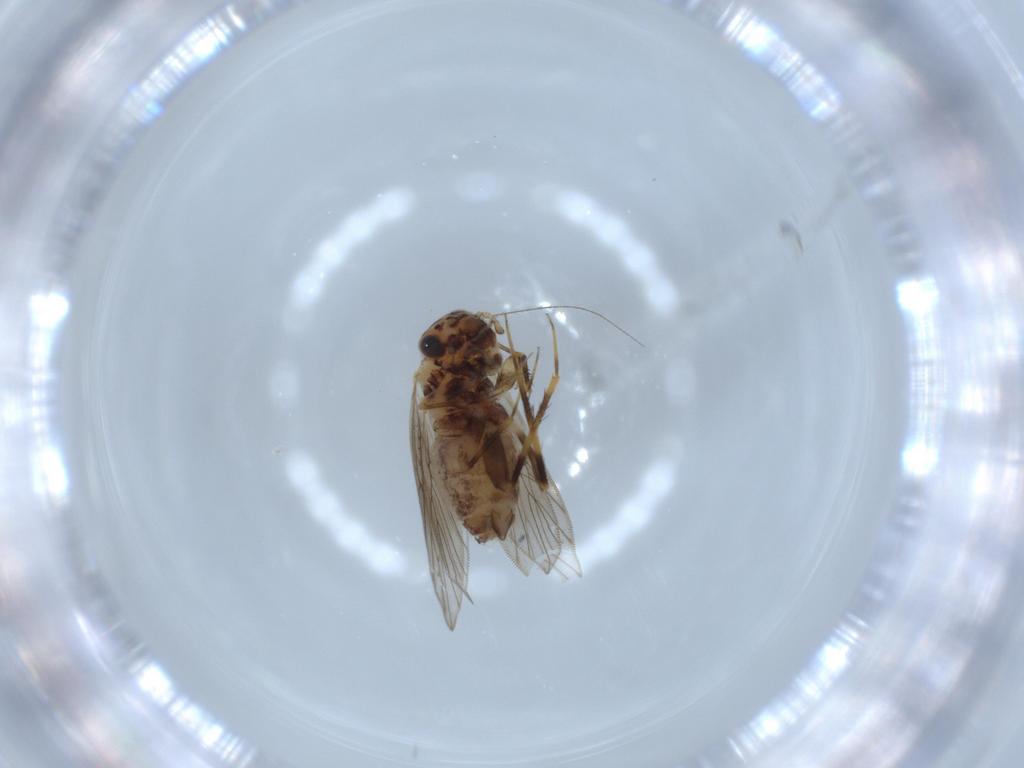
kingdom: Animalia
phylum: Arthropoda
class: Insecta
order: Psocodea
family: Lepidopsocidae
